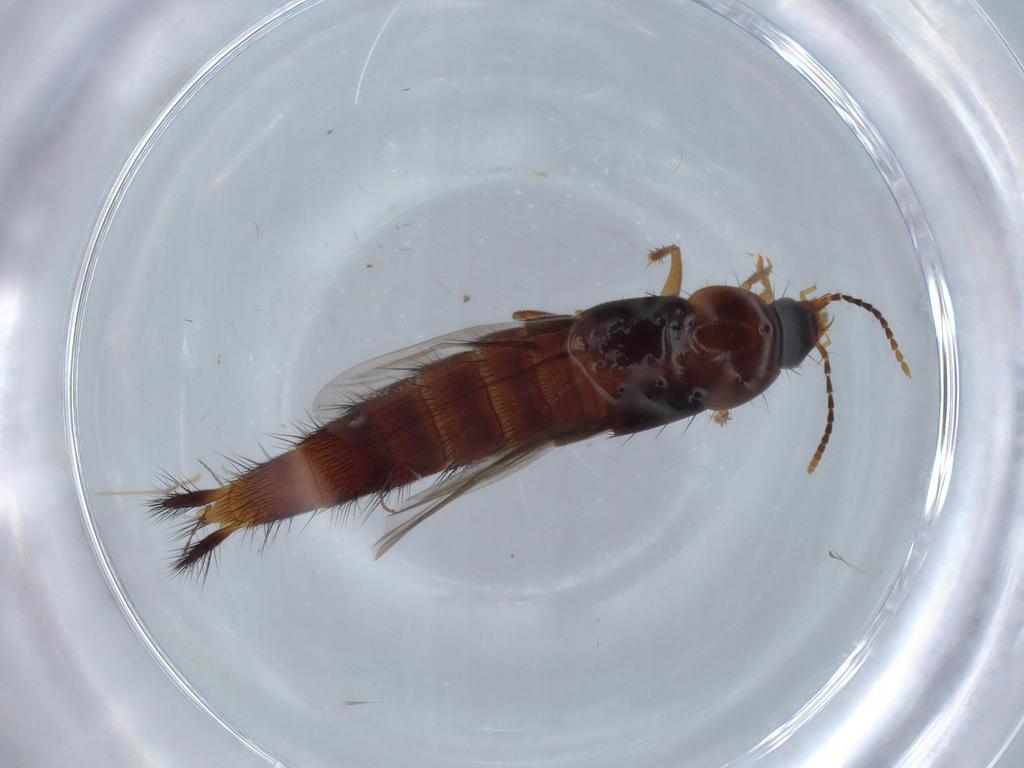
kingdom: Animalia
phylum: Arthropoda
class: Insecta
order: Coleoptera
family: Staphylinidae
